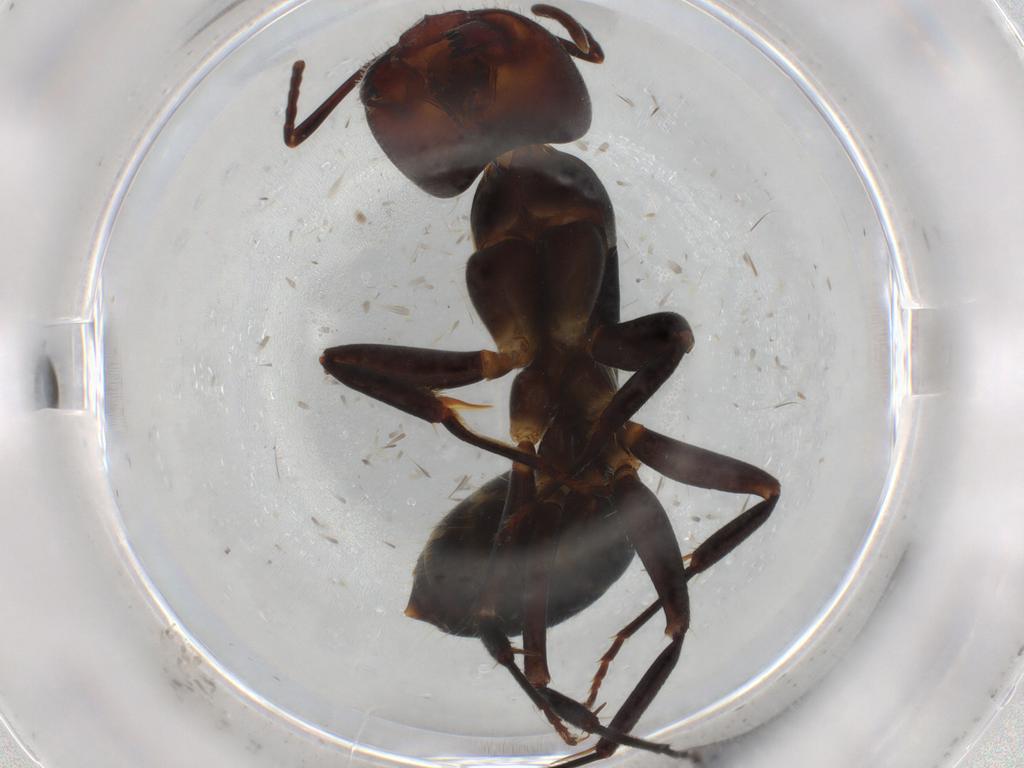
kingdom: Animalia
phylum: Arthropoda
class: Insecta
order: Hymenoptera
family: Formicidae
